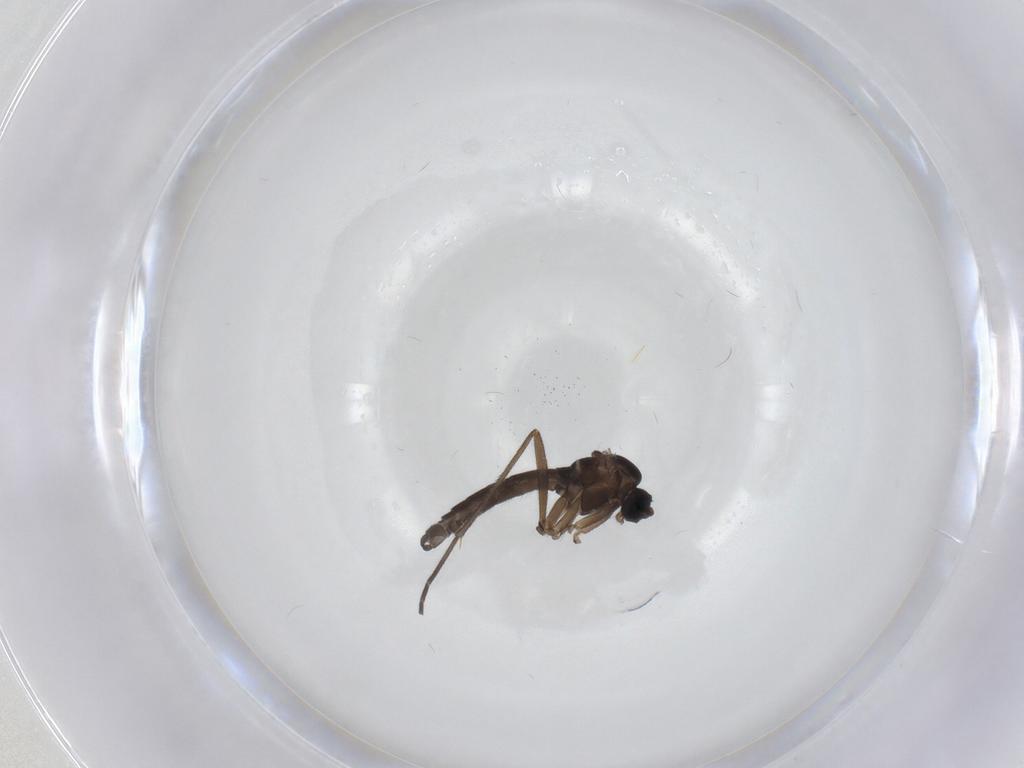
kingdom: Animalia
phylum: Arthropoda
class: Insecta
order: Diptera
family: Sciaridae
